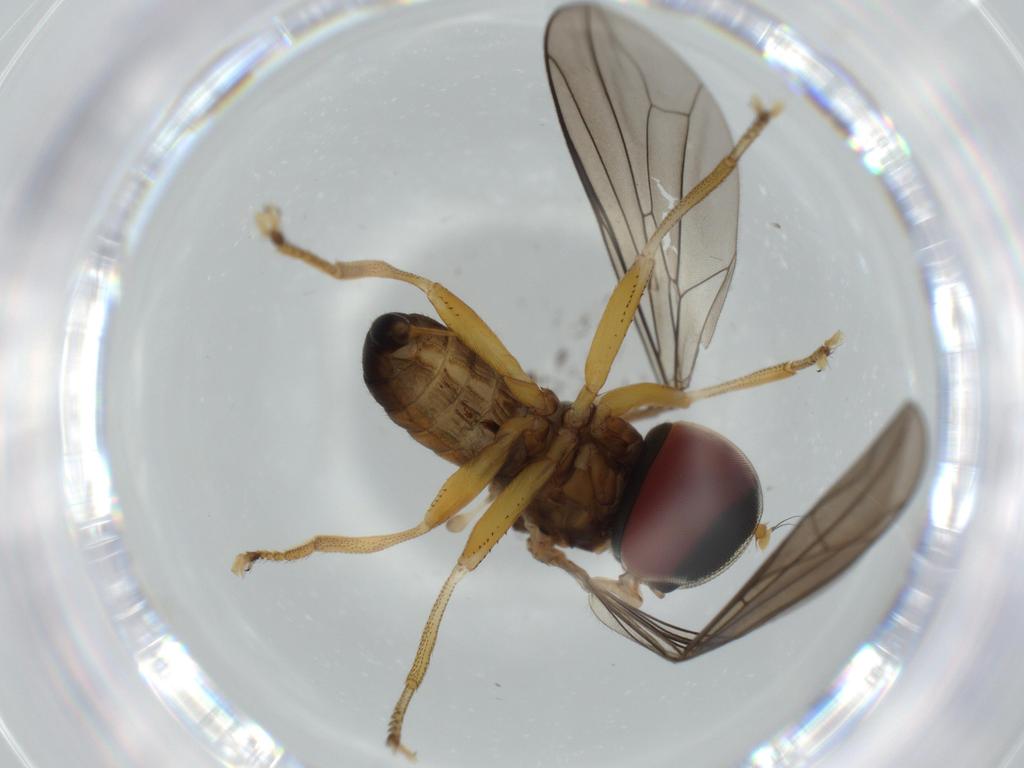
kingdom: Animalia
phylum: Arthropoda
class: Insecta
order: Diptera
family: Pipunculidae
